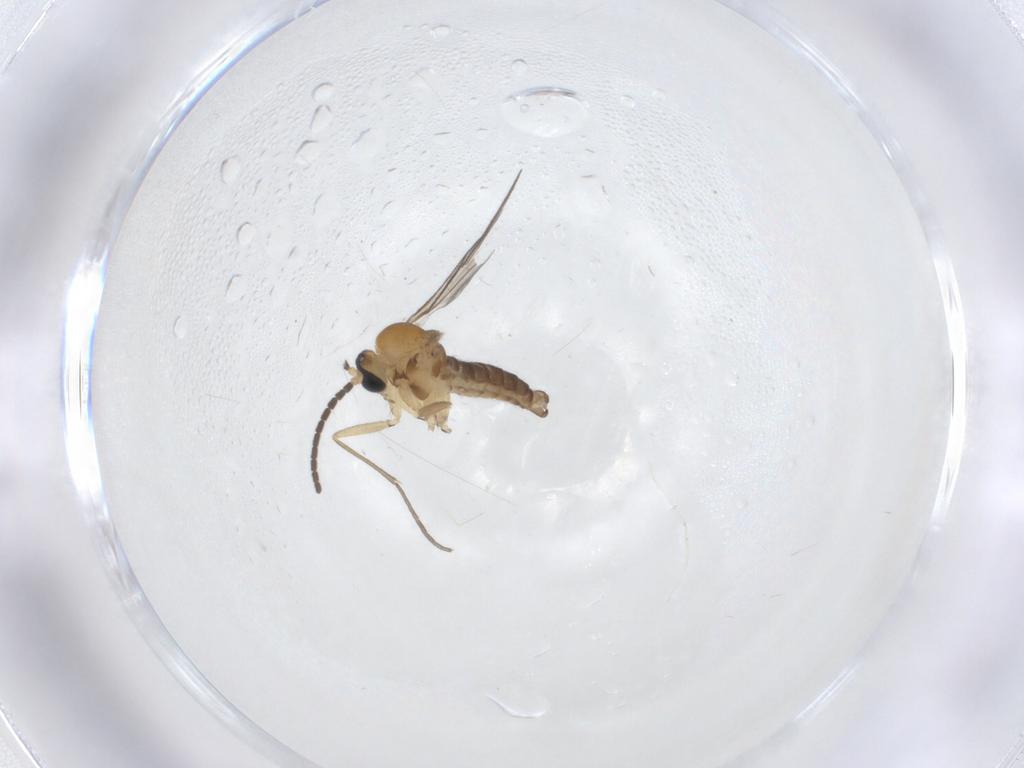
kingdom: Animalia
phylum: Arthropoda
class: Insecta
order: Diptera
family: Sciaridae
